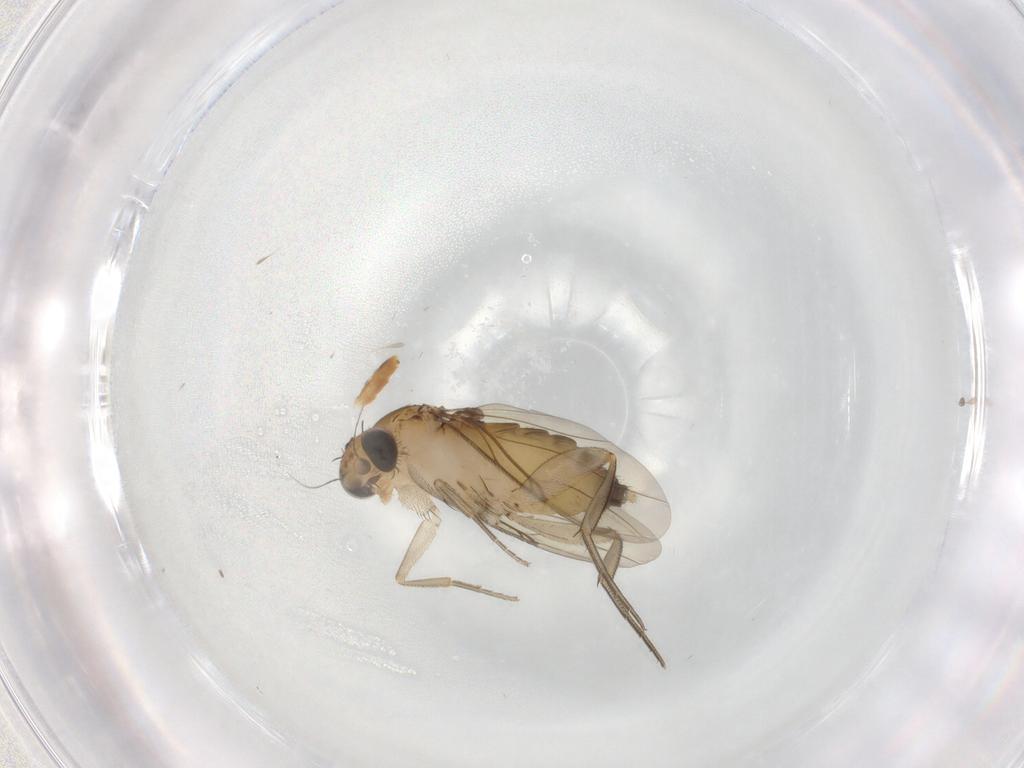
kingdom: Animalia
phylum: Arthropoda
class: Insecta
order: Diptera
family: Phoridae
